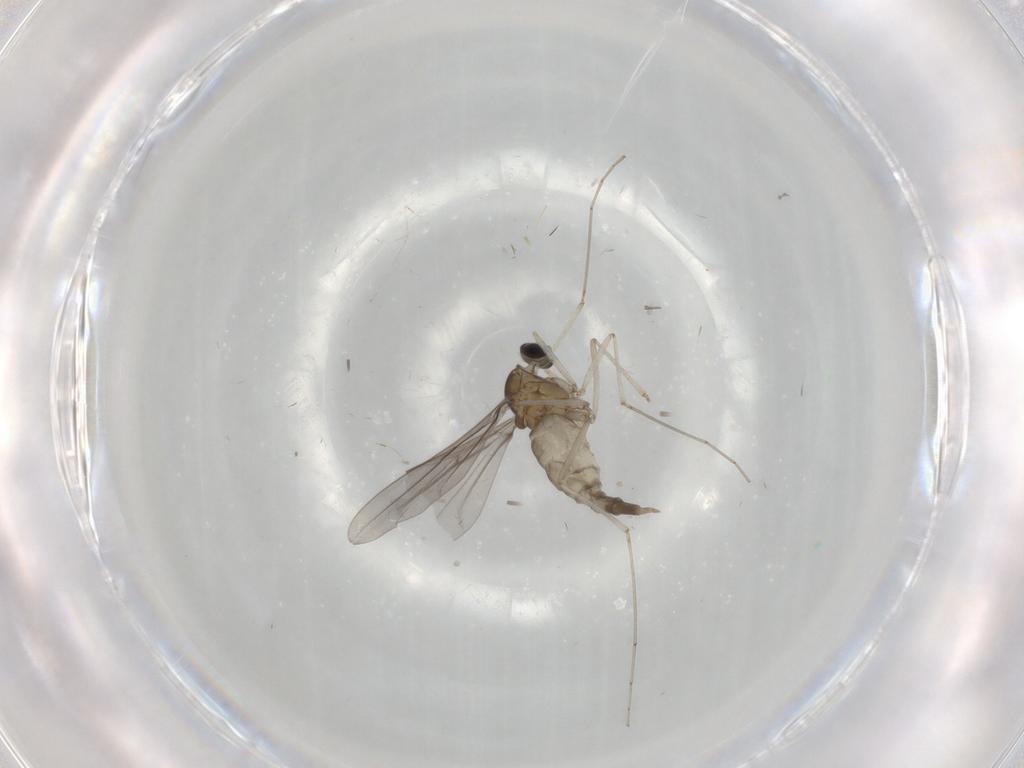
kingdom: Animalia
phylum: Arthropoda
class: Insecta
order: Diptera
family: Cecidomyiidae
